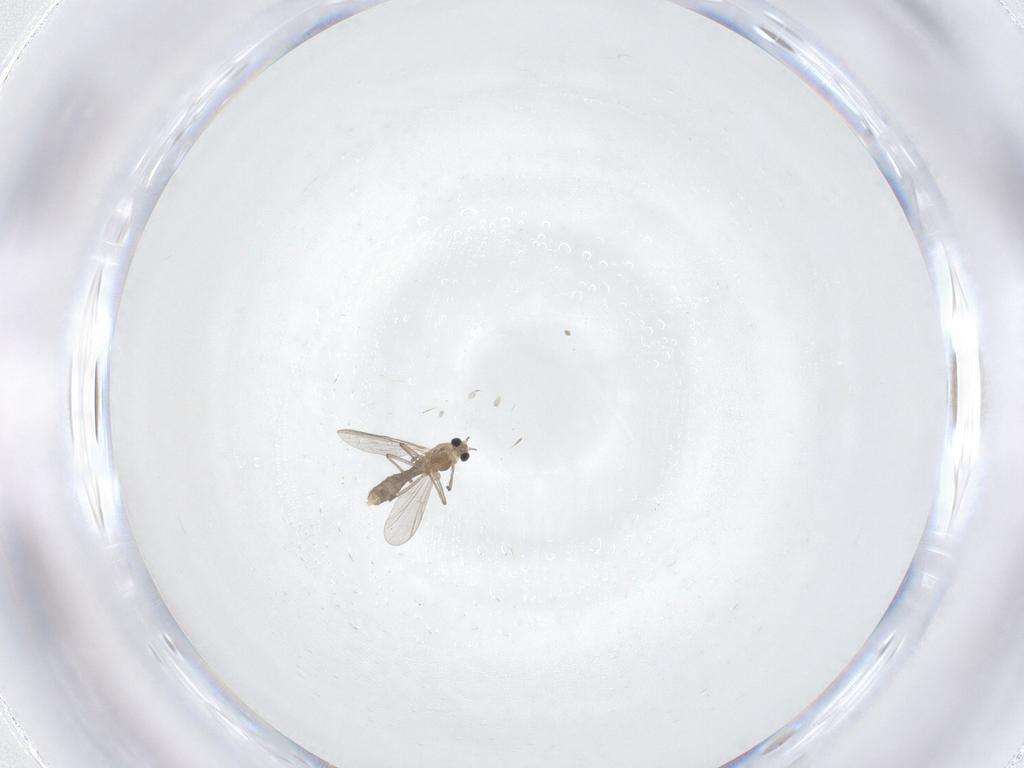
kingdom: Animalia
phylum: Arthropoda
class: Insecta
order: Diptera
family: Chironomidae
